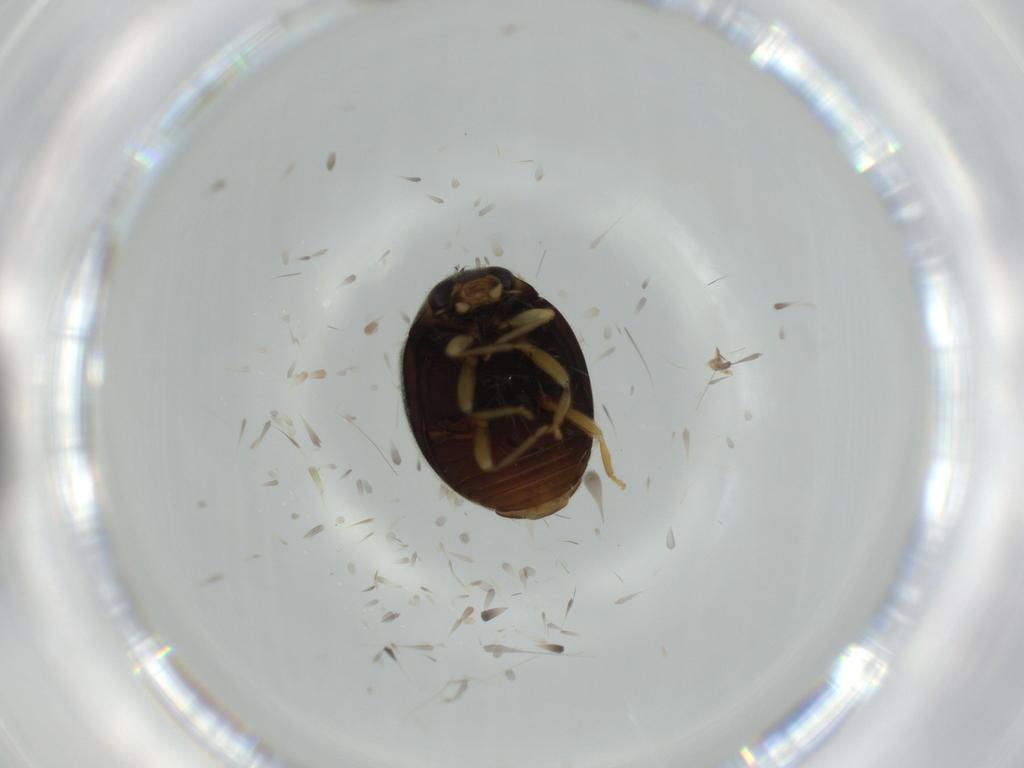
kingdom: Animalia
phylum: Arthropoda
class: Insecta
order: Coleoptera
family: Coccinellidae
